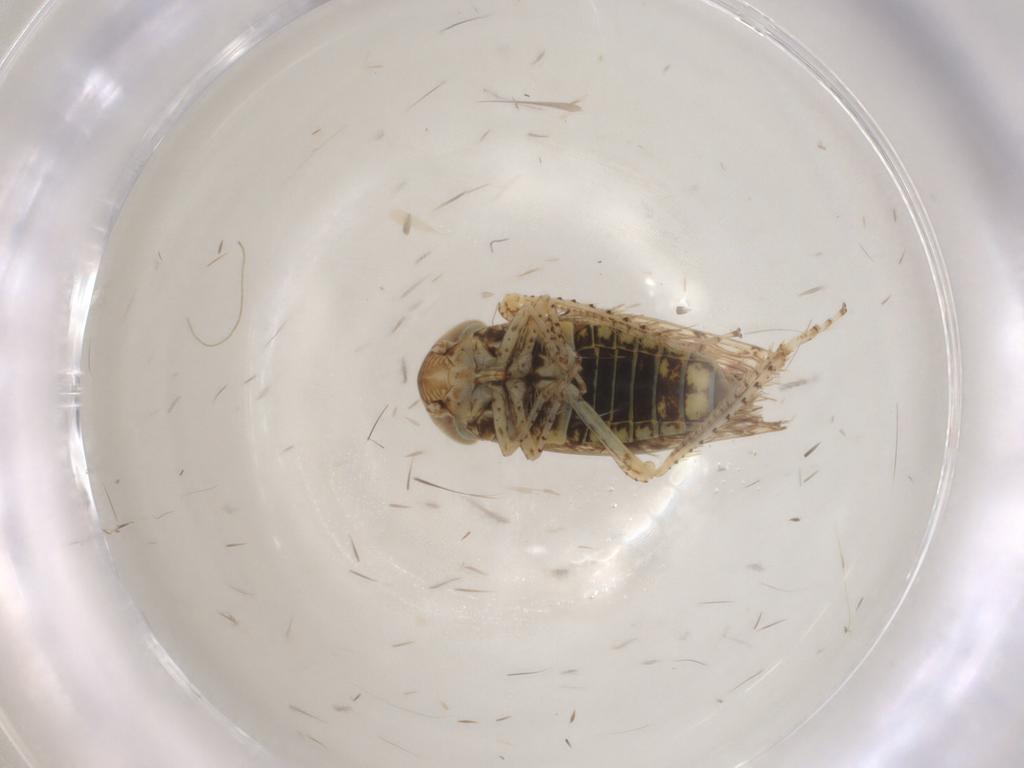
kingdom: Animalia
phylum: Arthropoda
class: Insecta
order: Hemiptera
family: Cicadellidae
